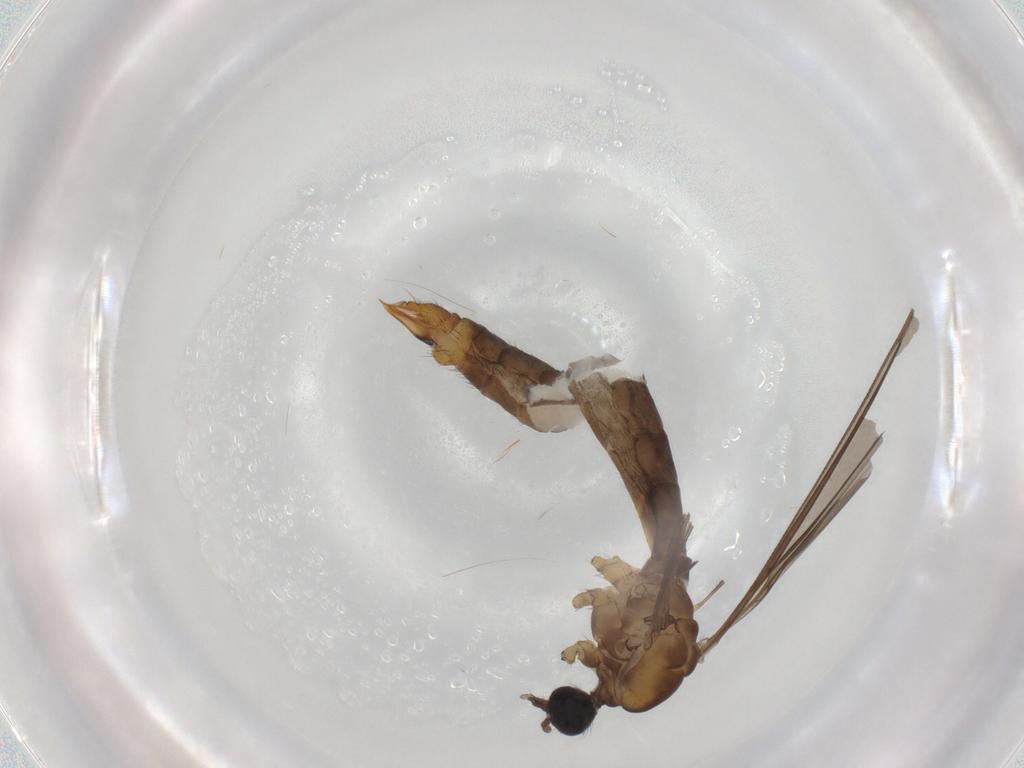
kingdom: Animalia
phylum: Arthropoda
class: Insecta
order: Diptera
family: Limoniidae
